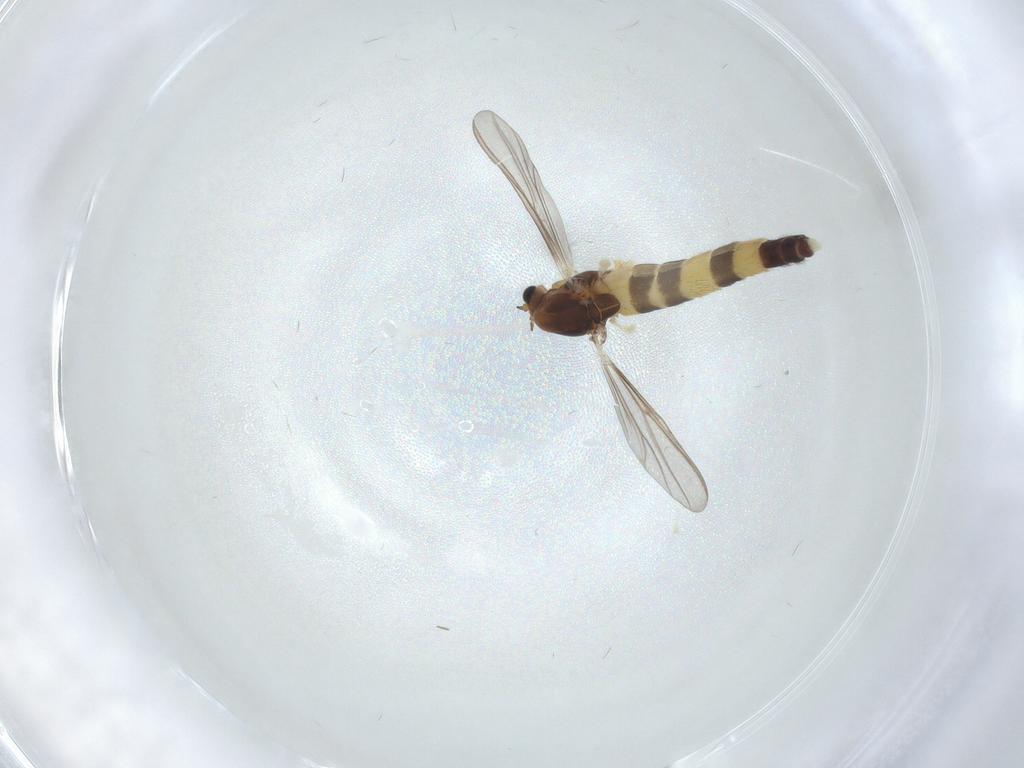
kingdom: Animalia
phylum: Arthropoda
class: Insecta
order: Diptera
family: Chironomidae
